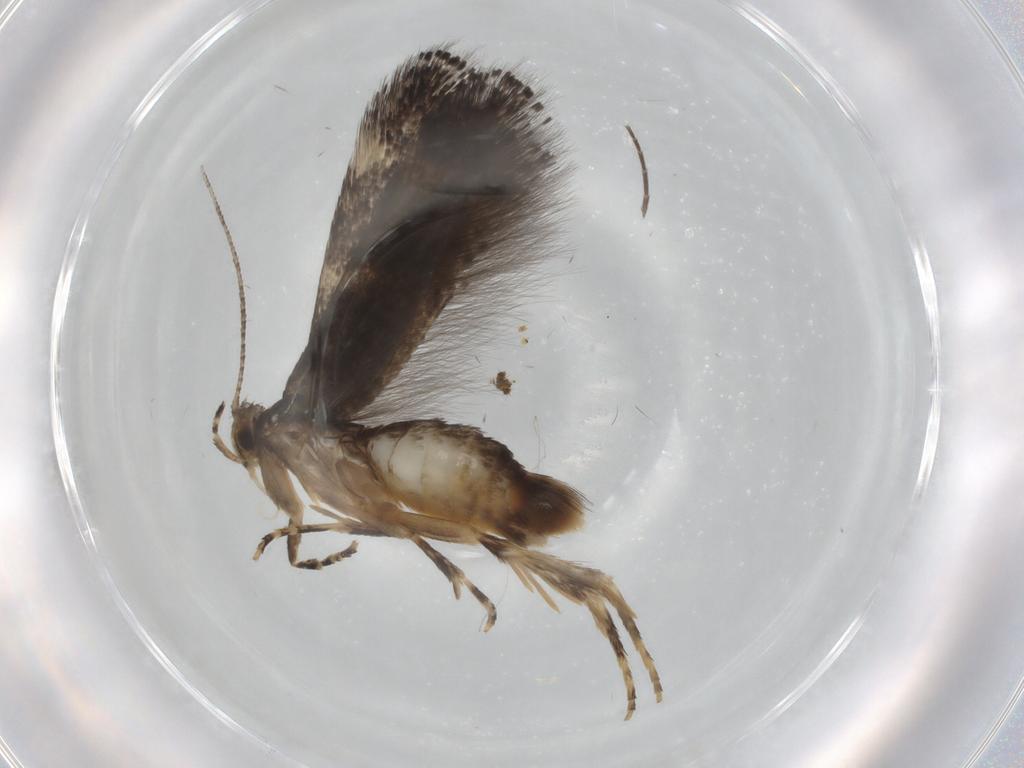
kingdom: Animalia
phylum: Arthropoda
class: Insecta
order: Lepidoptera
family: Elachistidae
